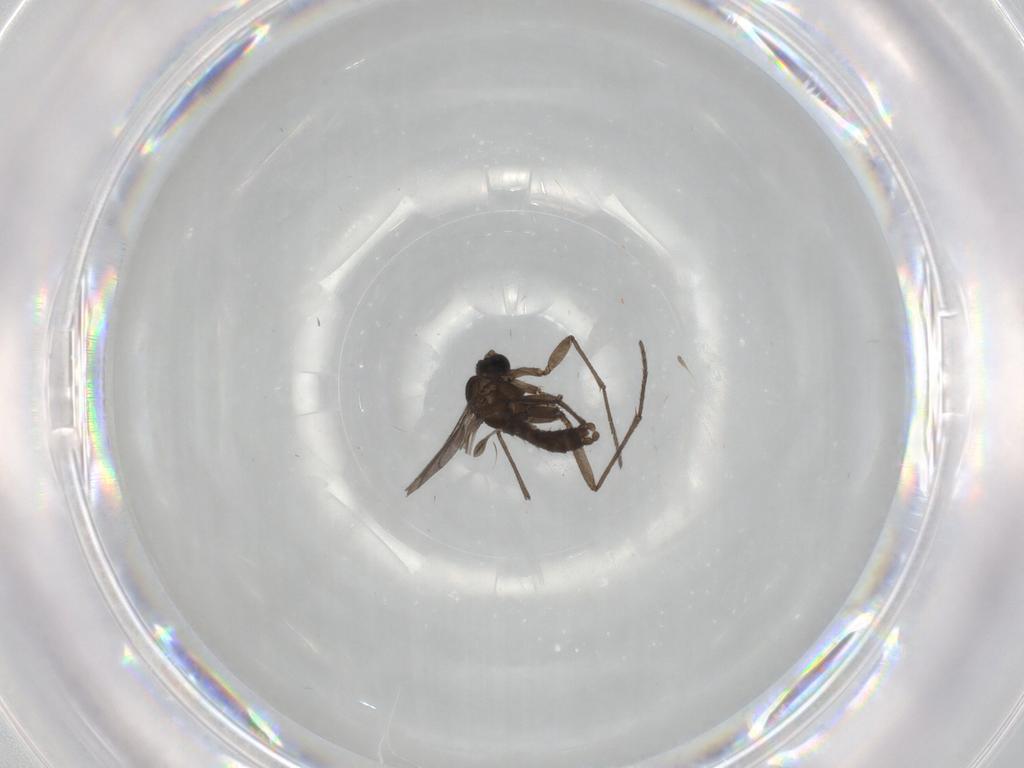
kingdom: Animalia
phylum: Arthropoda
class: Insecta
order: Diptera
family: Sciaridae
